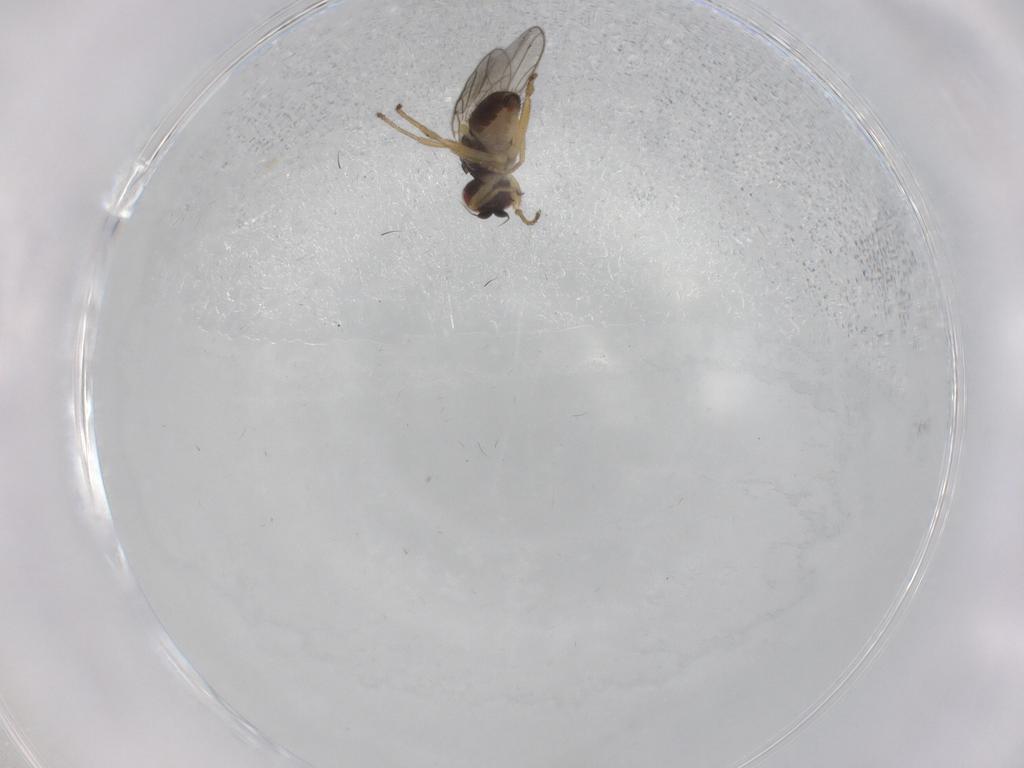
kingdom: Animalia
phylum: Arthropoda
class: Insecta
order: Diptera
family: Chloropidae
